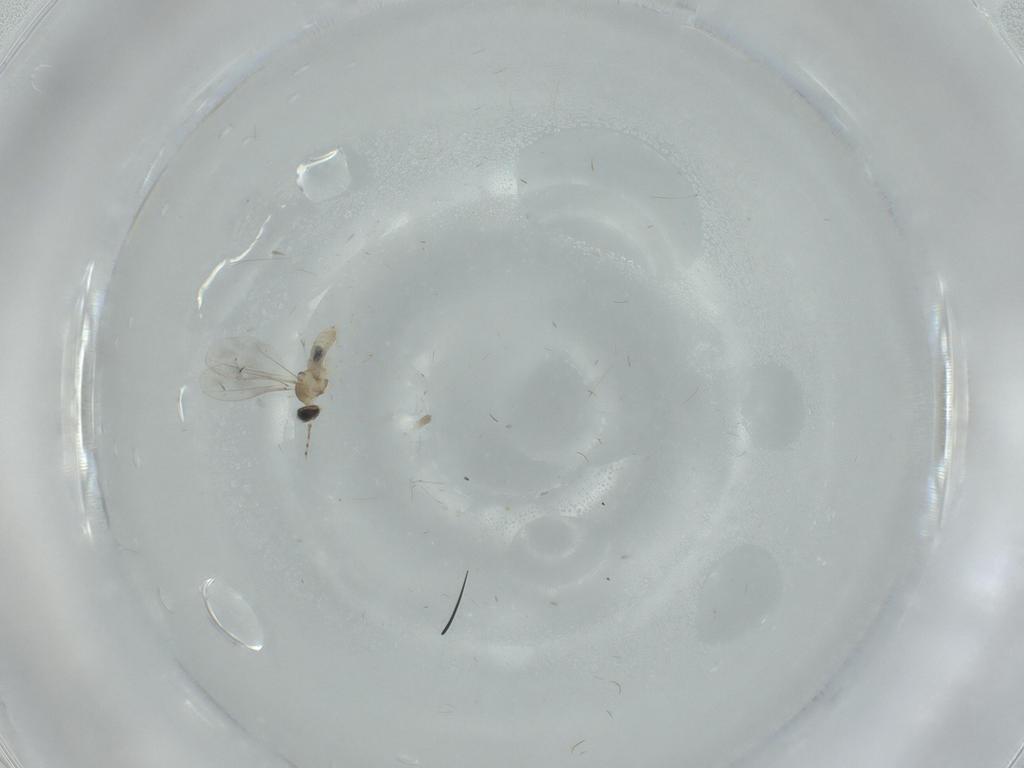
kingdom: Animalia
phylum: Arthropoda
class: Insecta
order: Diptera
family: Cecidomyiidae
